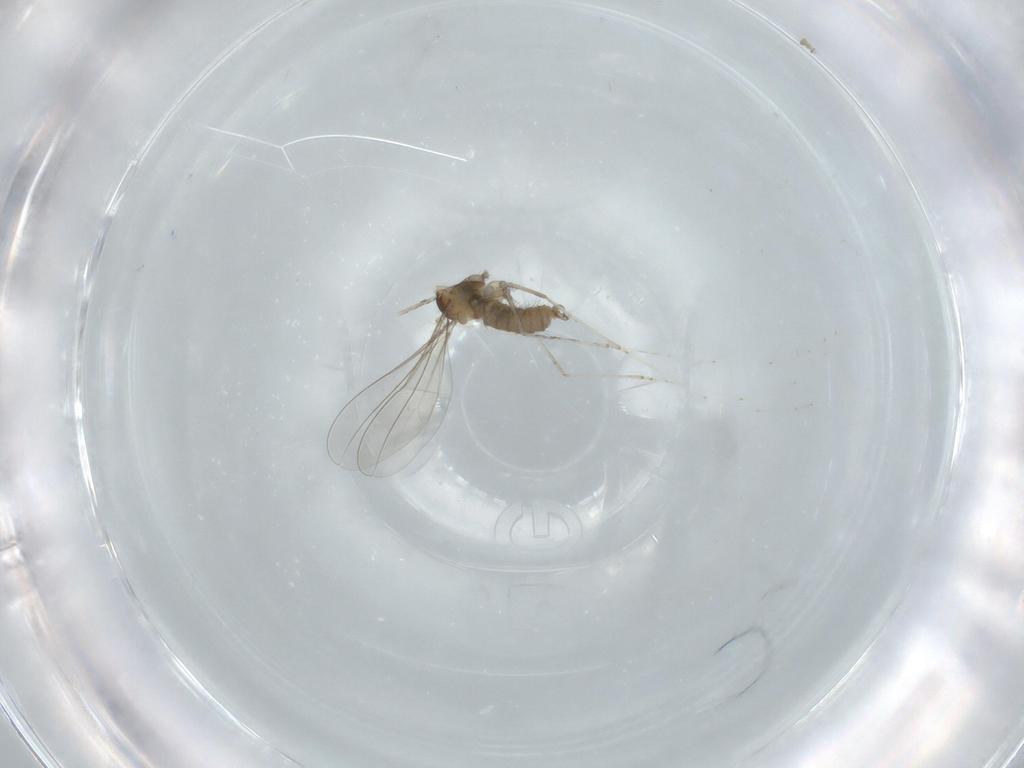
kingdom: Animalia
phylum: Arthropoda
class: Insecta
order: Diptera
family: Cecidomyiidae
